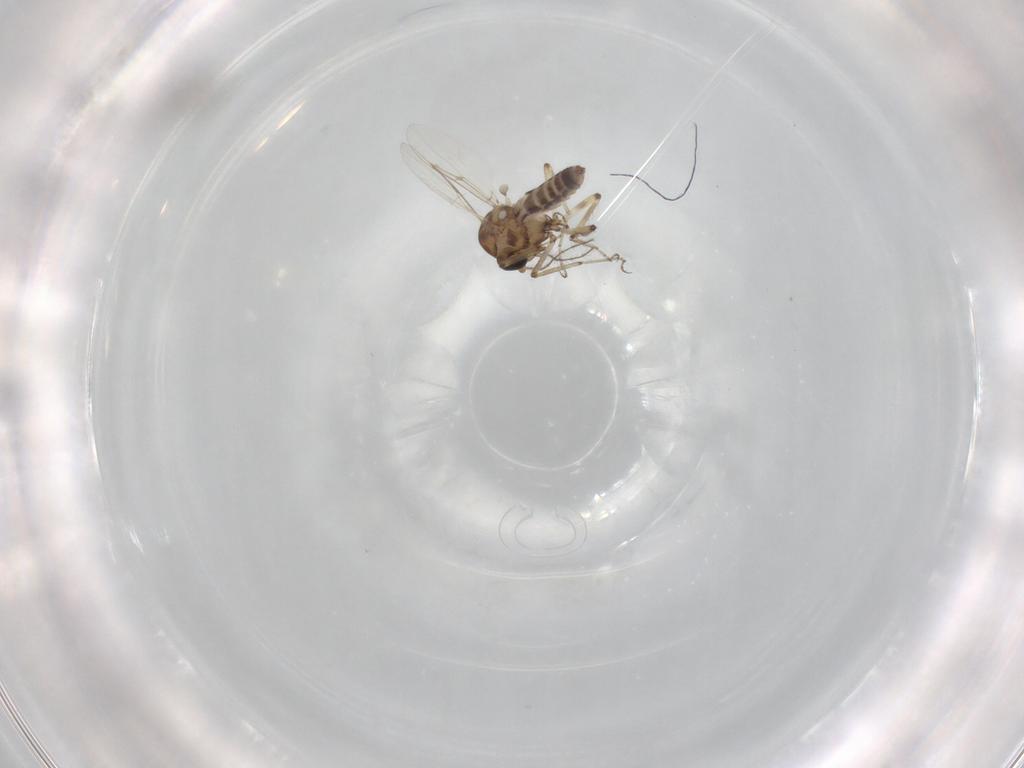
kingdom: Animalia
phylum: Arthropoda
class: Insecta
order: Diptera
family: Ceratopogonidae
